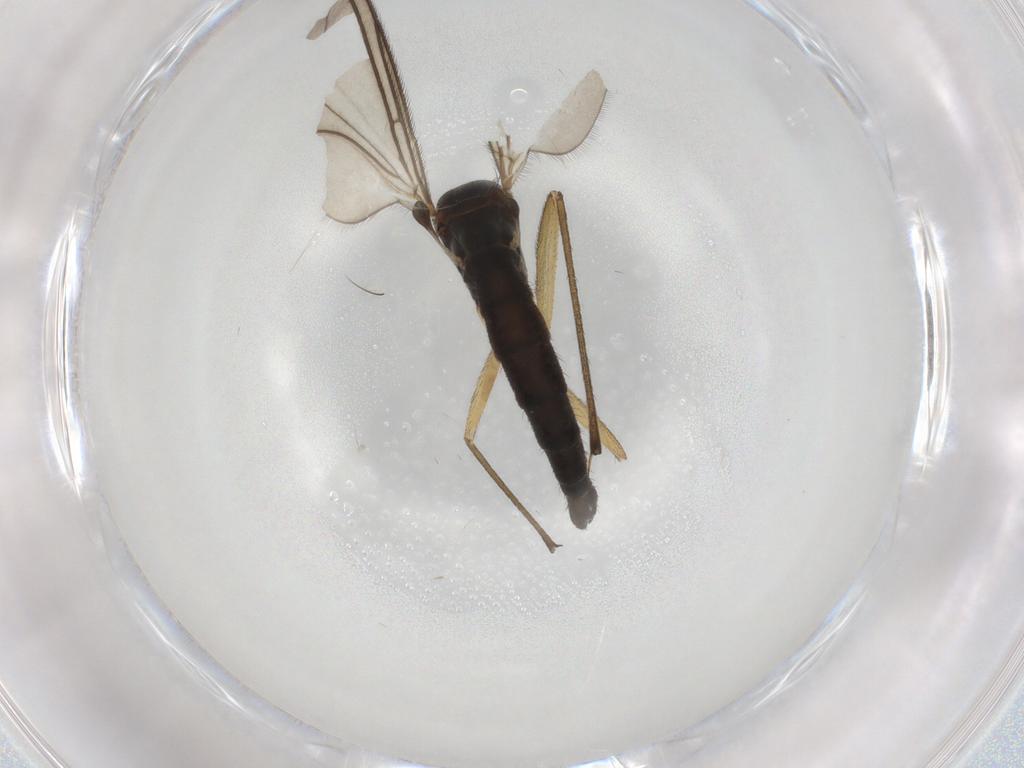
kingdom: Animalia
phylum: Arthropoda
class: Insecta
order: Diptera
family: Sciaridae
